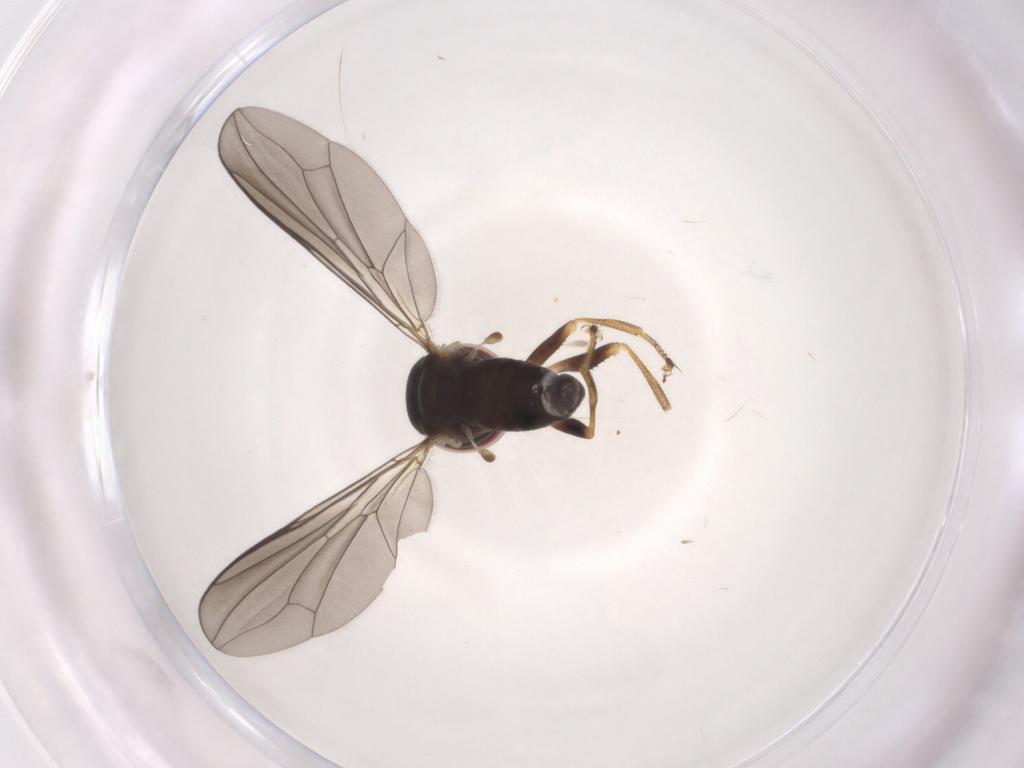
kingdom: Animalia
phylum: Arthropoda
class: Insecta
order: Diptera
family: Pipunculidae
